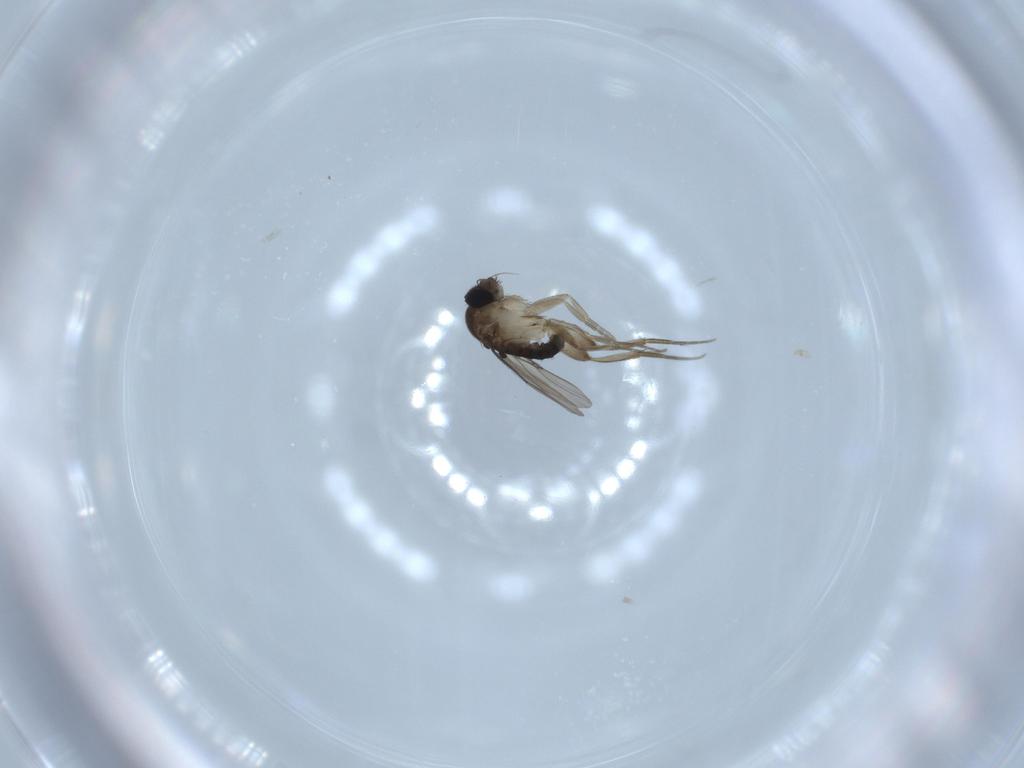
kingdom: Animalia
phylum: Arthropoda
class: Insecta
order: Diptera
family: Phoridae
